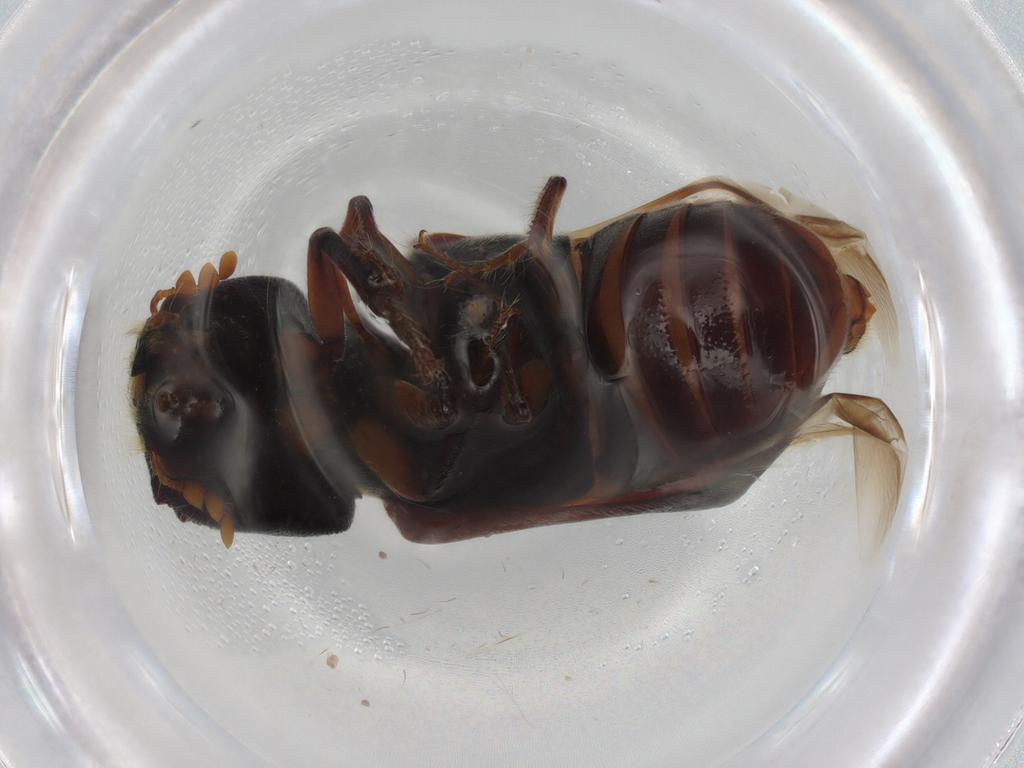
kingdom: Animalia
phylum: Arthropoda
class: Insecta
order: Coleoptera
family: Bostrichidae
